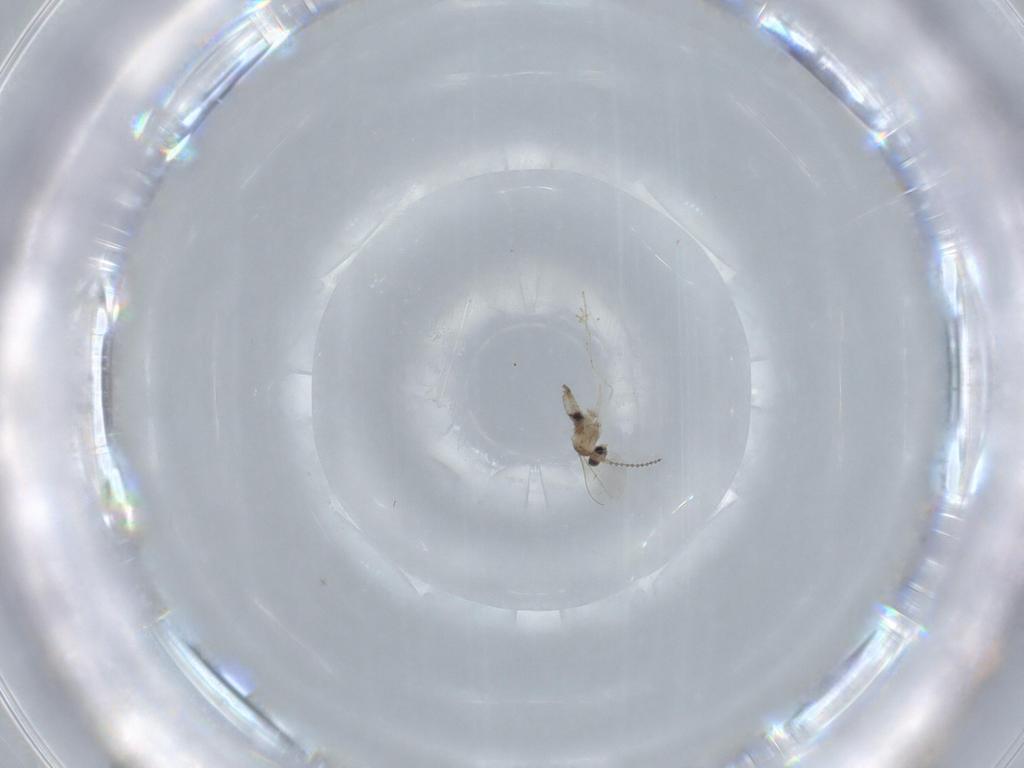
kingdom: Animalia
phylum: Arthropoda
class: Insecta
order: Diptera
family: Cecidomyiidae
